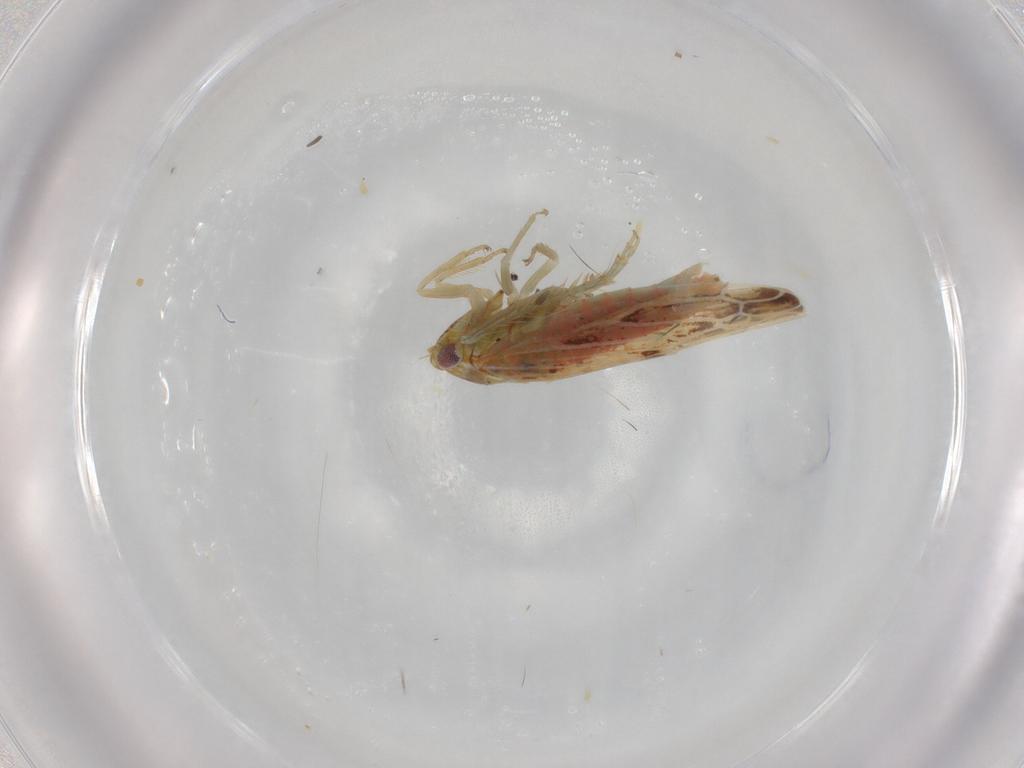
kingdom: Animalia
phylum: Arthropoda
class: Insecta
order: Hemiptera
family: Cicadellidae
